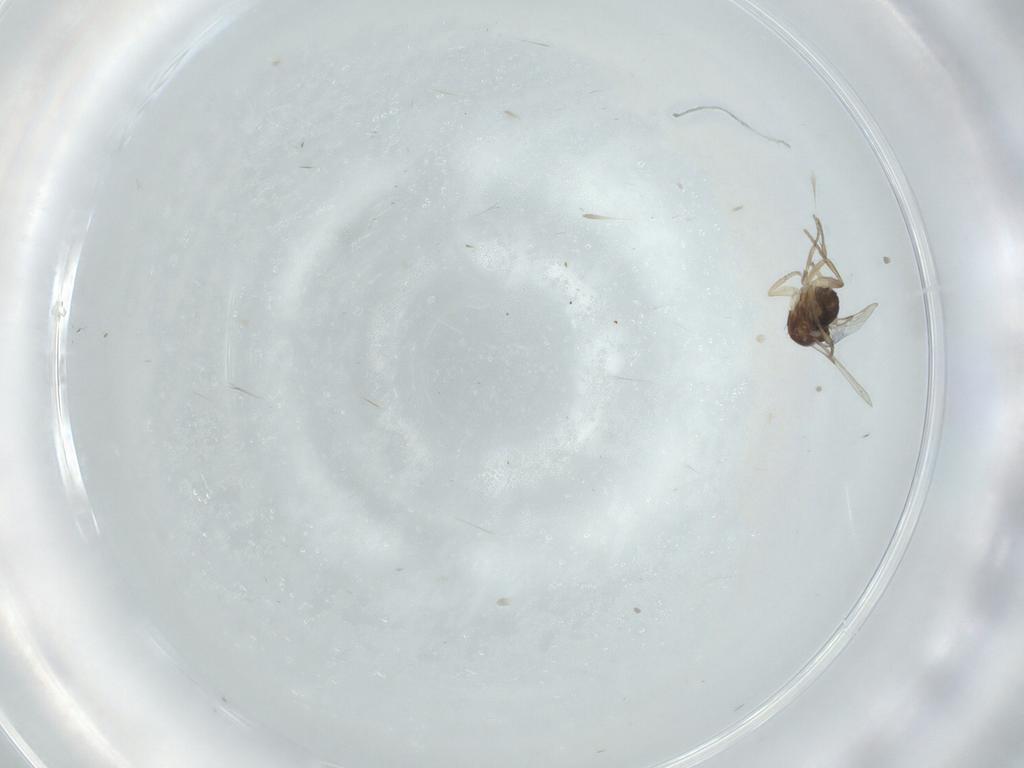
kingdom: Animalia
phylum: Arthropoda
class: Insecta
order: Diptera
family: Phoridae
